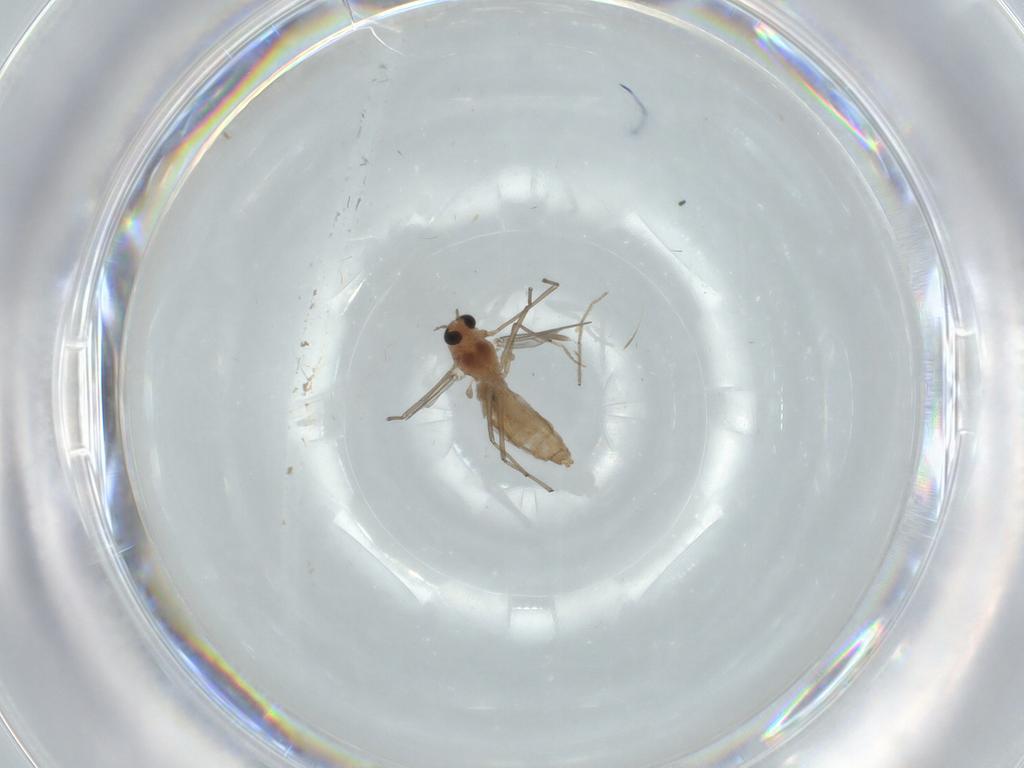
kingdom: Animalia
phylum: Arthropoda
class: Insecta
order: Diptera
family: Chironomidae
